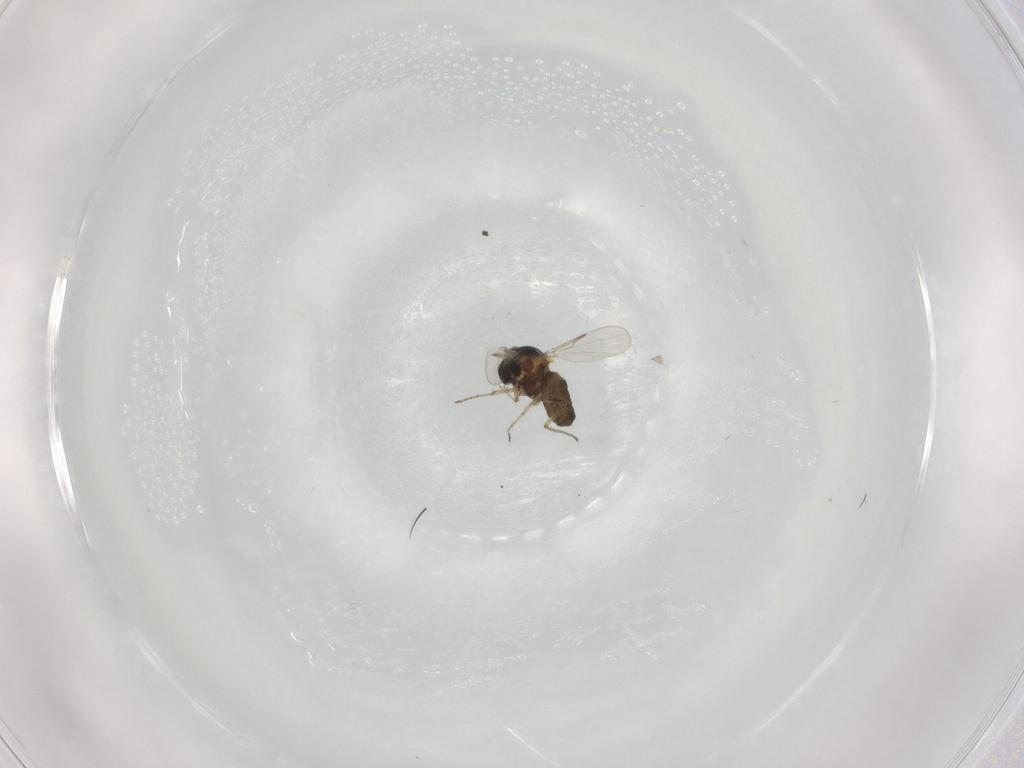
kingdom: Animalia
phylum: Arthropoda
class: Insecta
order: Diptera
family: Ceratopogonidae
